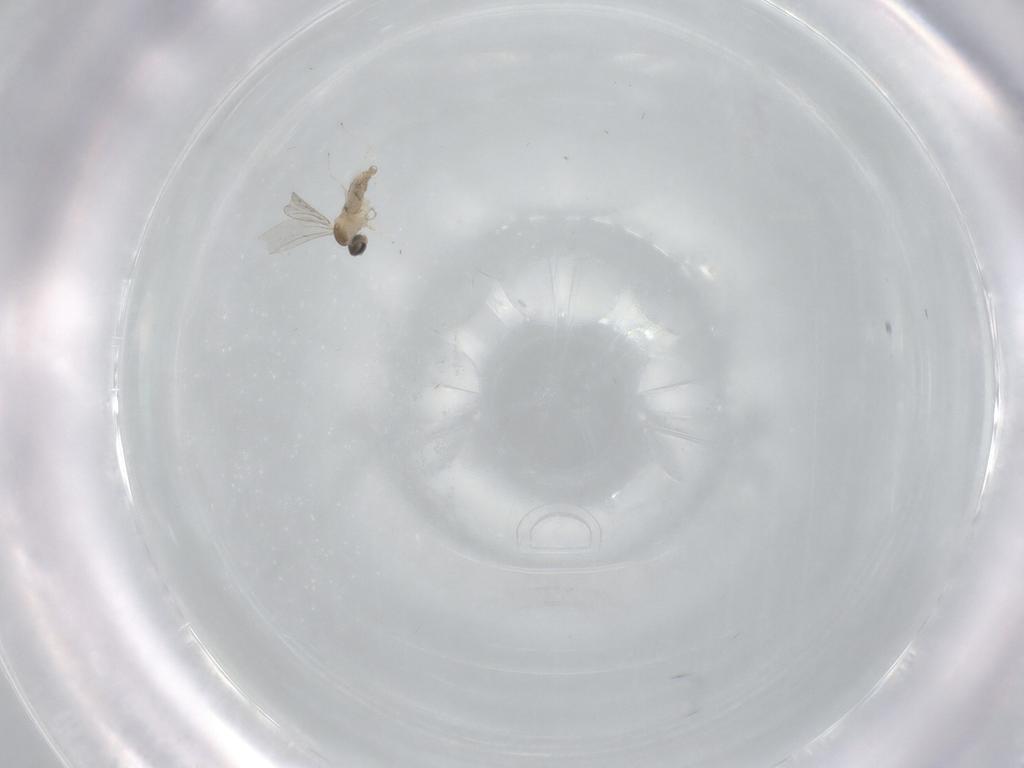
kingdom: Animalia
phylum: Arthropoda
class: Insecta
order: Diptera
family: Cecidomyiidae
